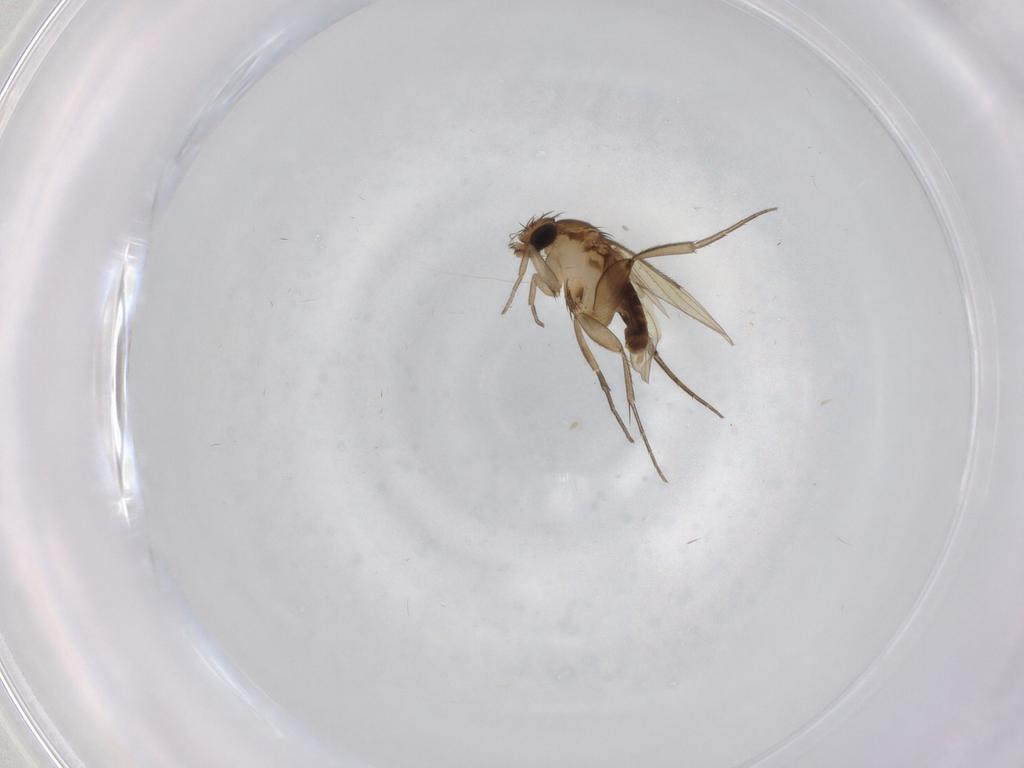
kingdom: Animalia
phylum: Arthropoda
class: Insecta
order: Diptera
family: Phoridae
